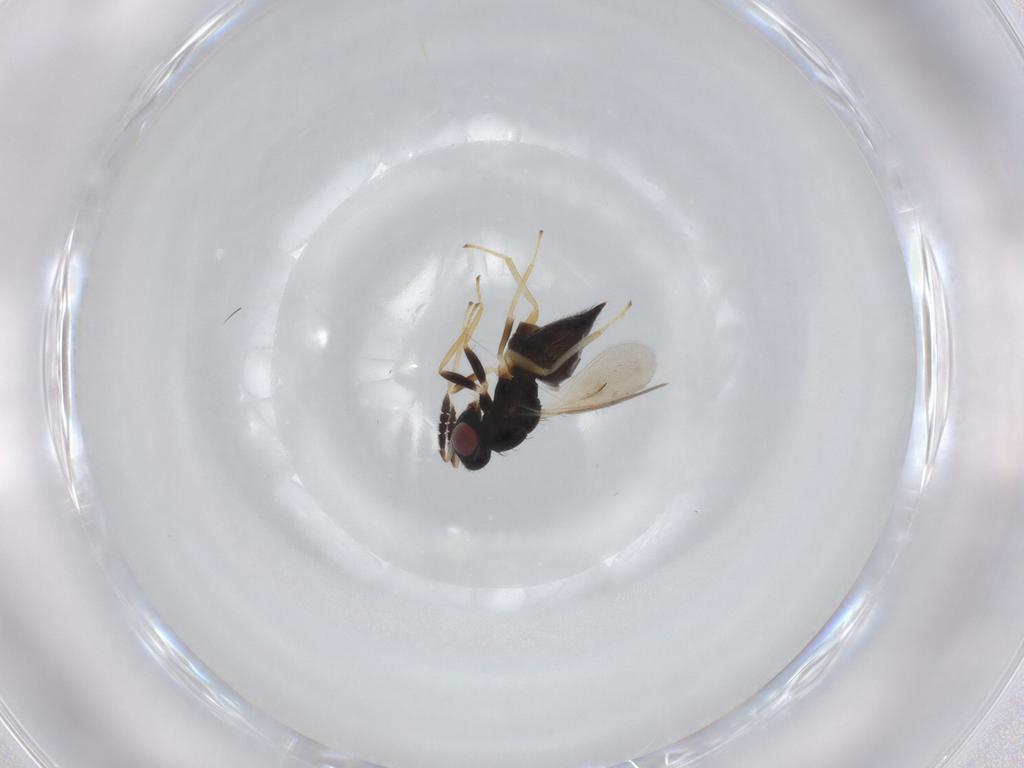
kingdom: Animalia
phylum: Arthropoda
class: Insecta
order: Hymenoptera
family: Eulophidae
